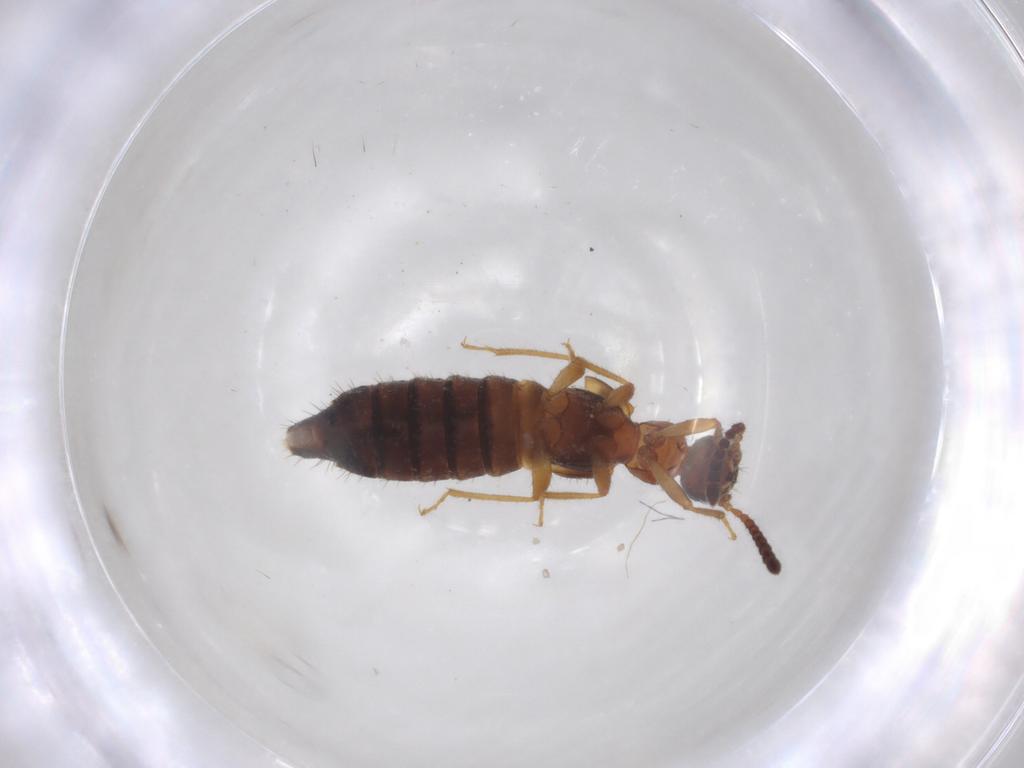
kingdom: Animalia
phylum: Arthropoda
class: Insecta
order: Coleoptera
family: Staphylinidae
